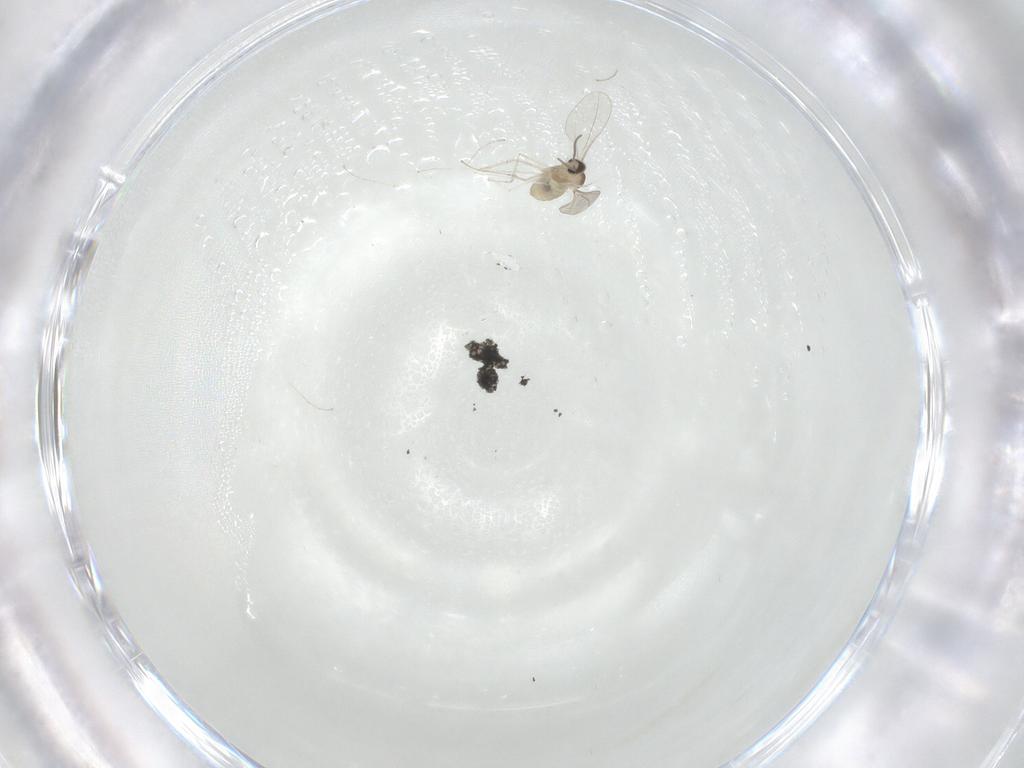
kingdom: Animalia
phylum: Arthropoda
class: Insecta
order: Diptera
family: Cecidomyiidae
